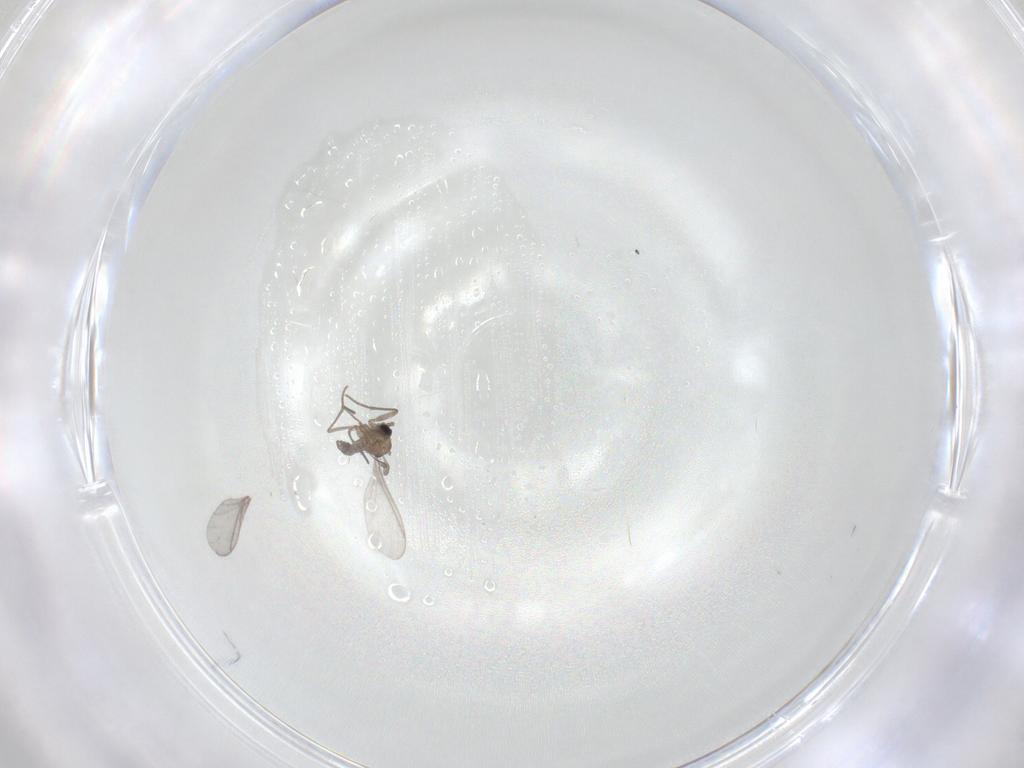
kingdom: Animalia
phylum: Arthropoda
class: Insecta
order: Diptera
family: Sciaridae
